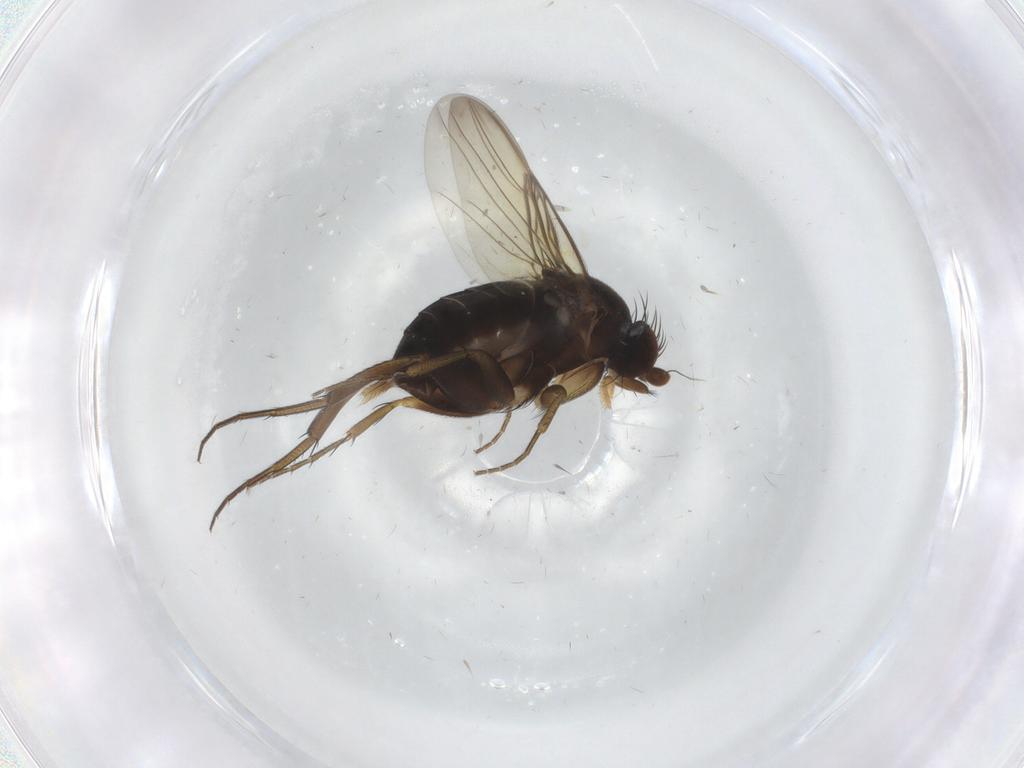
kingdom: Animalia
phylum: Arthropoda
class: Insecta
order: Diptera
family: Phoridae
